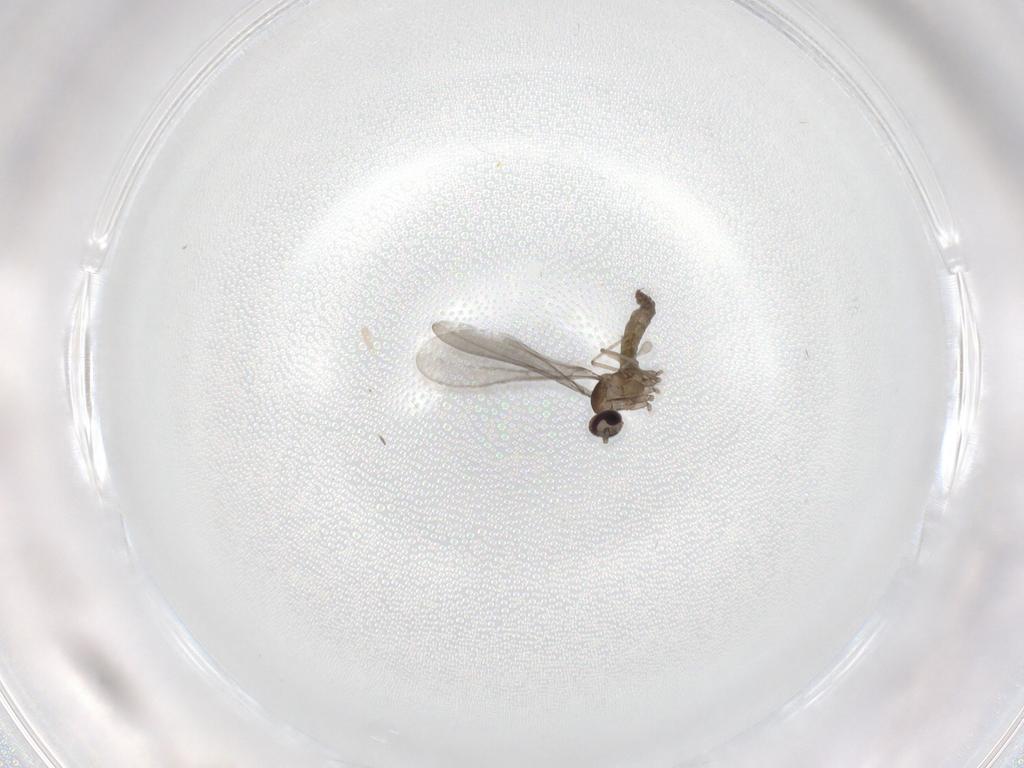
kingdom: Animalia
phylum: Arthropoda
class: Insecta
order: Diptera
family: Cecidomyiidae
